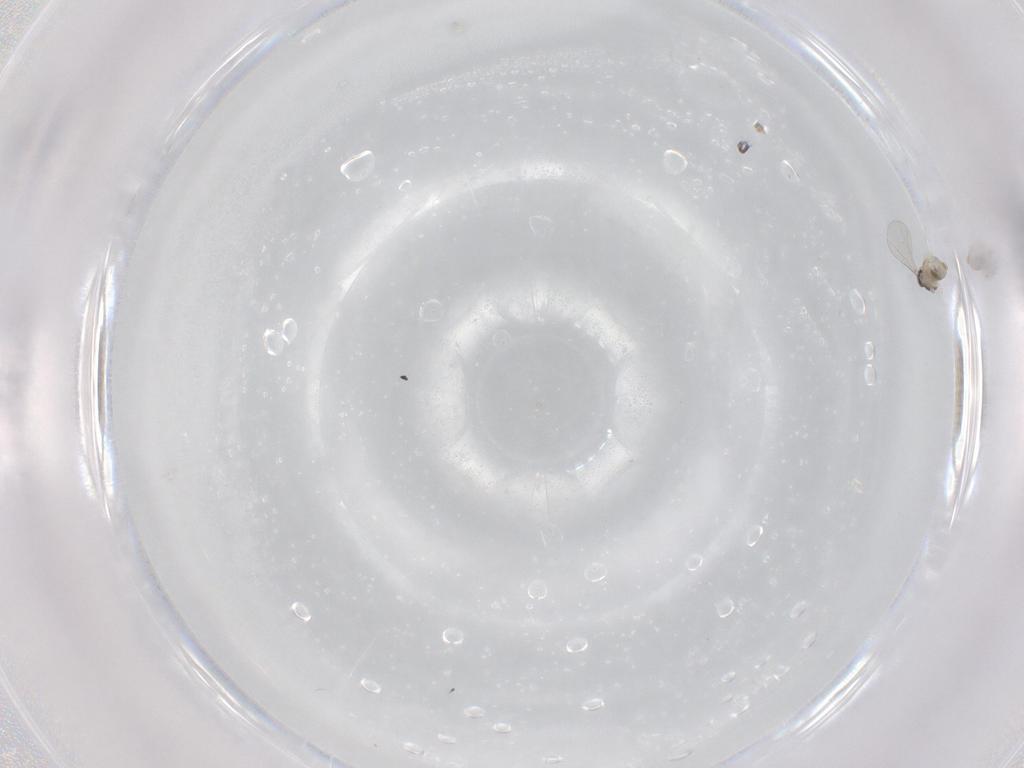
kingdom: Animalia
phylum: Arthropoda
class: Insecta
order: Diptera
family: Cecidomyiidae
